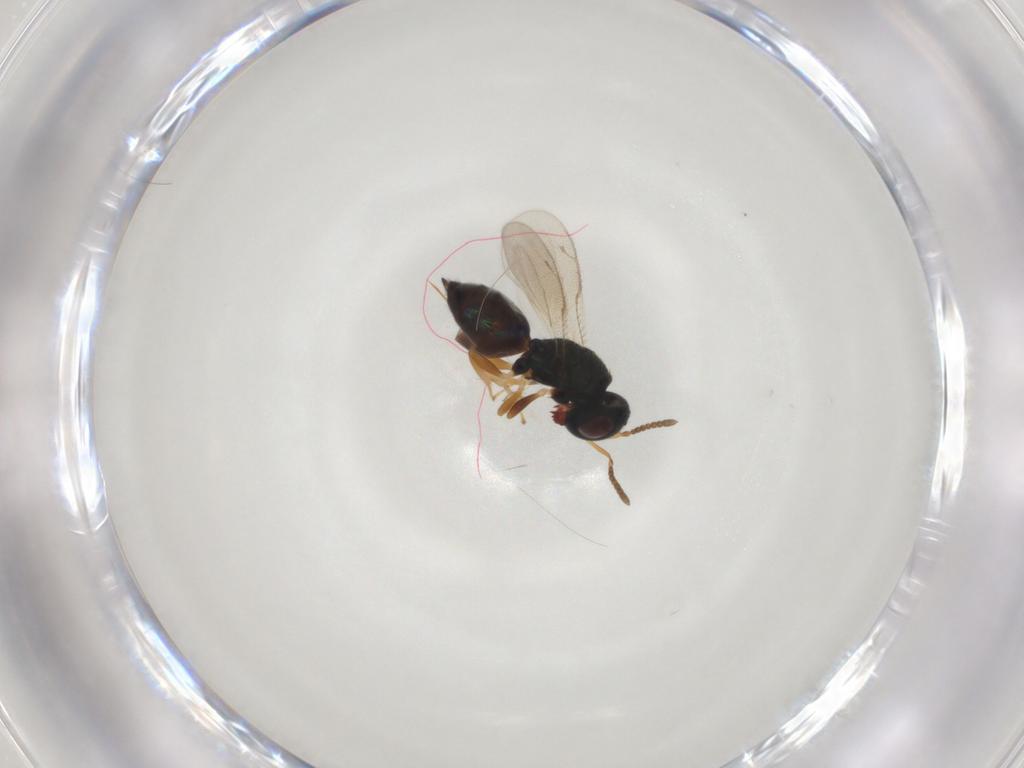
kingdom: Animalia
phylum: Arthropoda
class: Insecta
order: Hymenoptera
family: Pteromalidae
